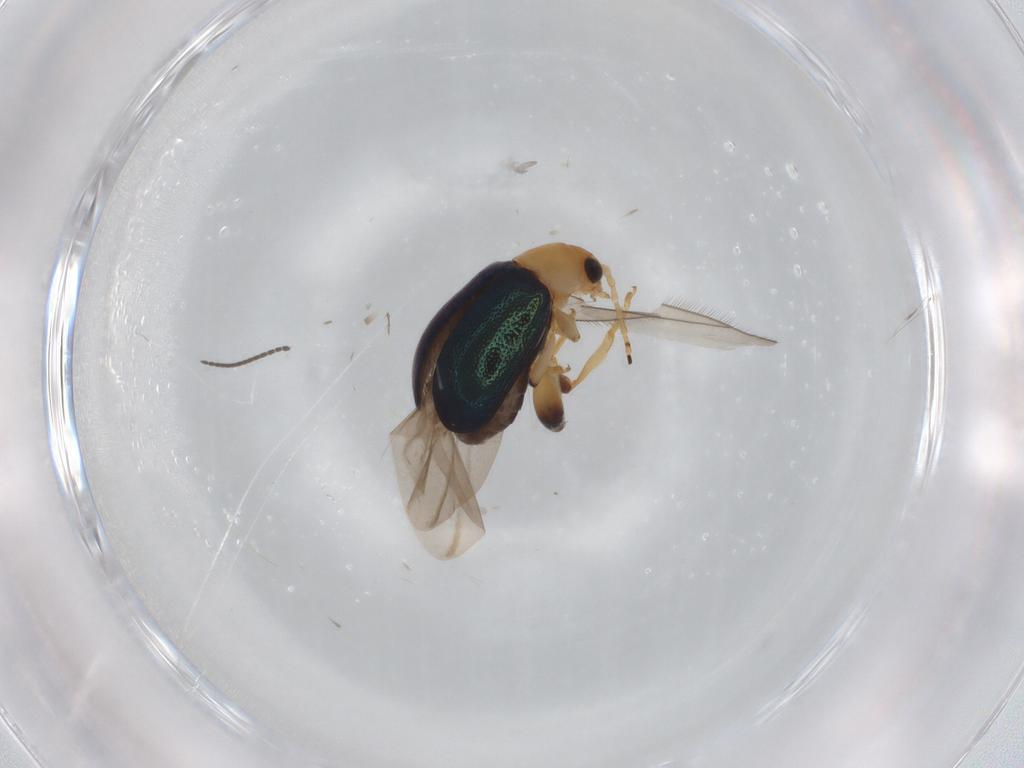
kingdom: Animalia
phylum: Arthropoda
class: Insecta
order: Coleoptera
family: Chrysomelidae
